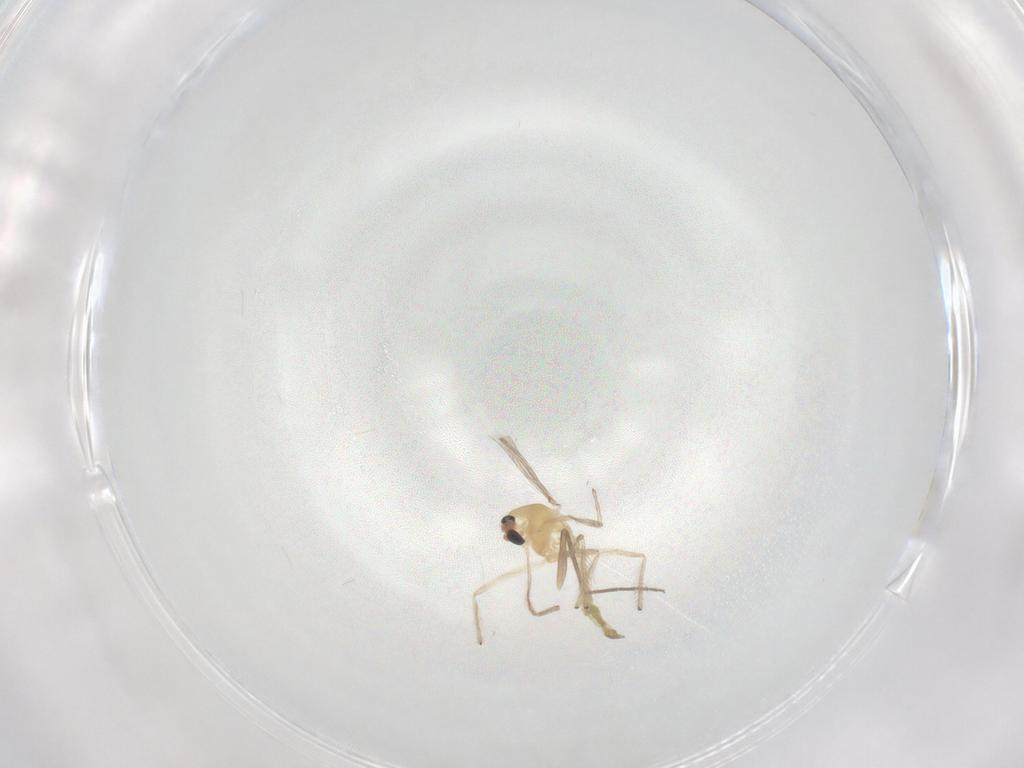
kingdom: Animalia
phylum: Arthropoda
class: Insecta
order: Diptera
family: Chironomidae
